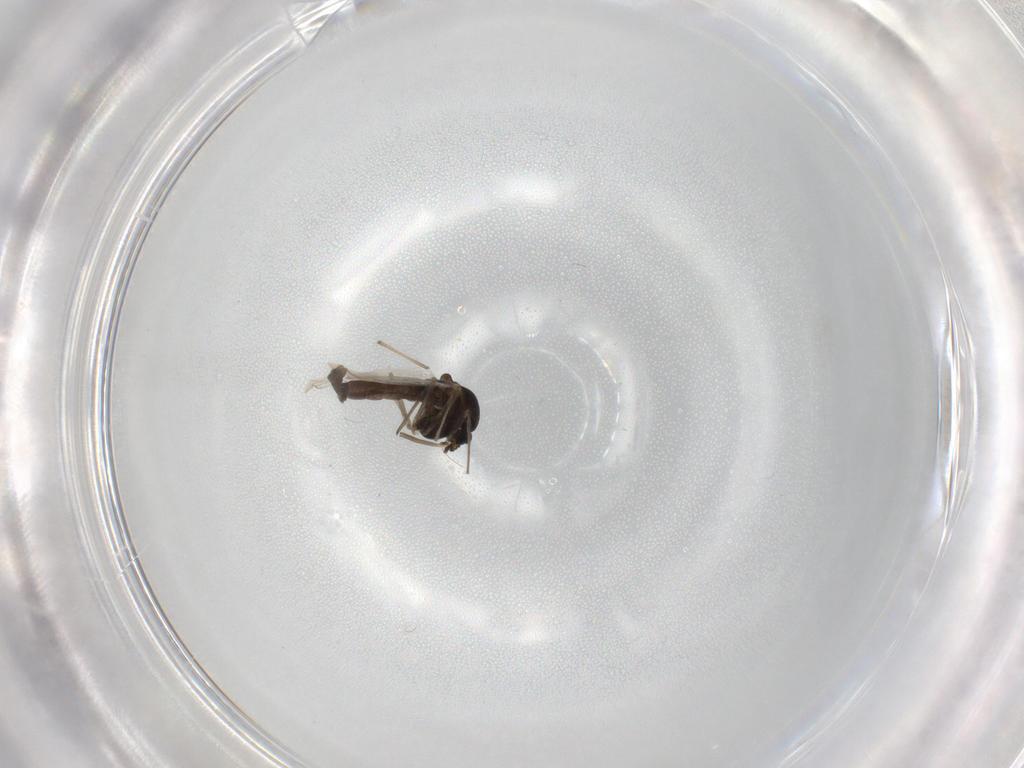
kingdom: Animalia
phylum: Arthropoda
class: Insecta
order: Diptera
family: Chironomidae
